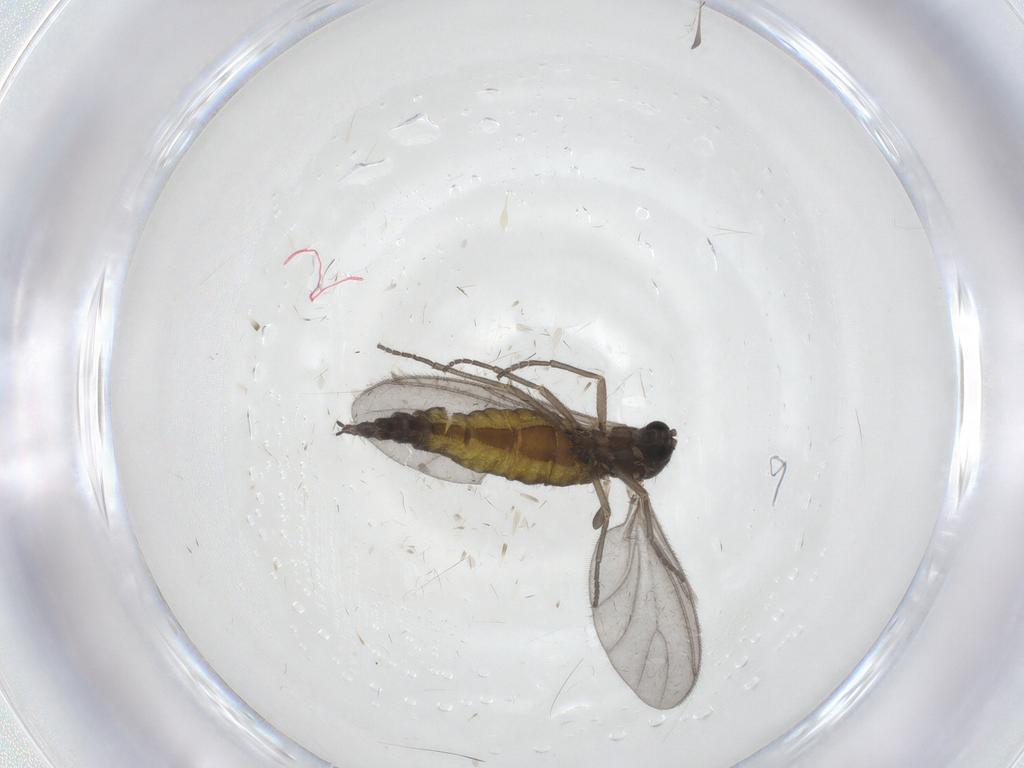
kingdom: Animalia
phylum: Arthropoda
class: Insecta
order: Diptera
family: Sciaridae
